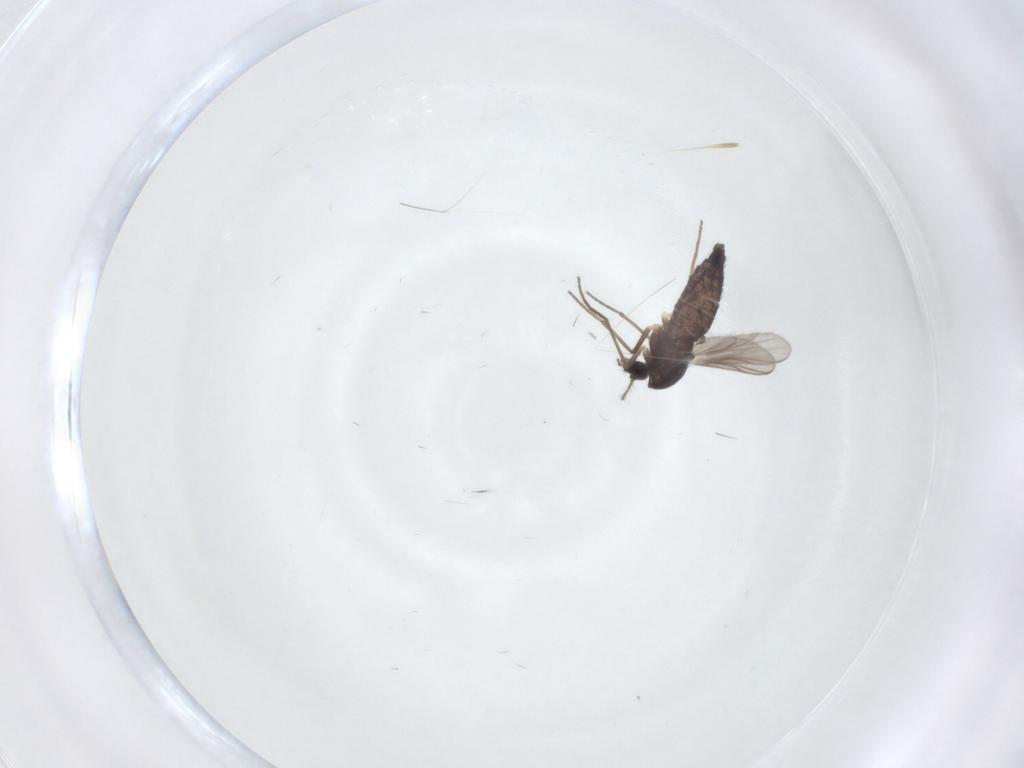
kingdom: Animalia
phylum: Arthropoda
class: Insecta
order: Diptera
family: Chironomidae
